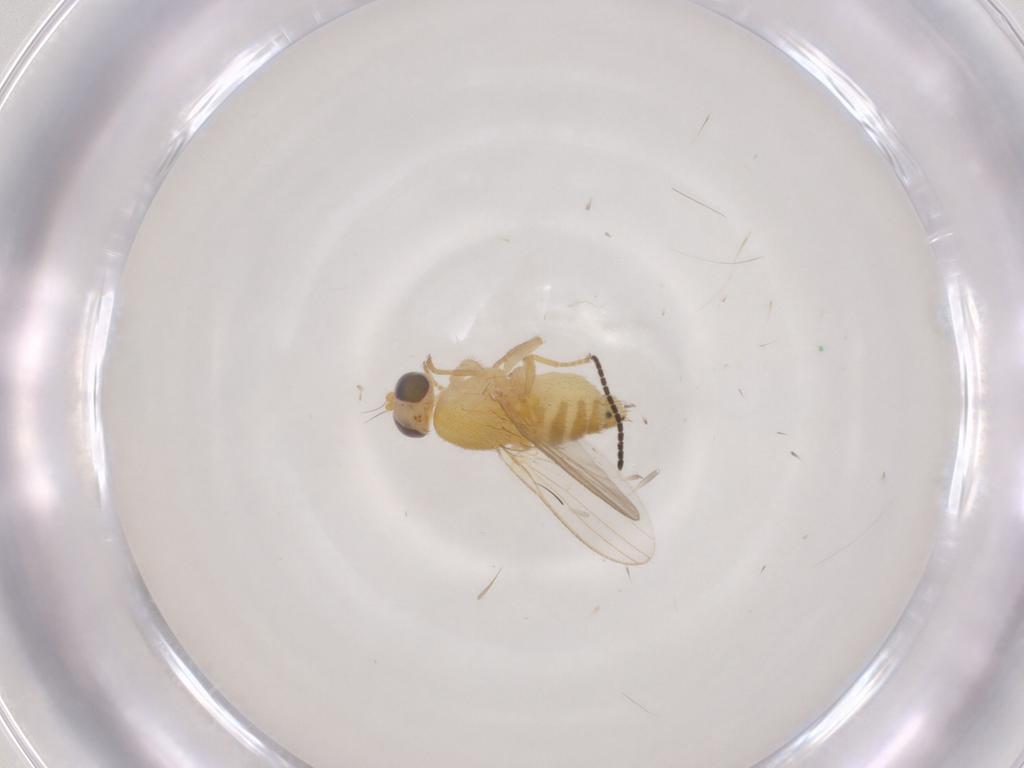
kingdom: Animalia
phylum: Arthropoda
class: Insecta
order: Diptera
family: Chyromyidae
